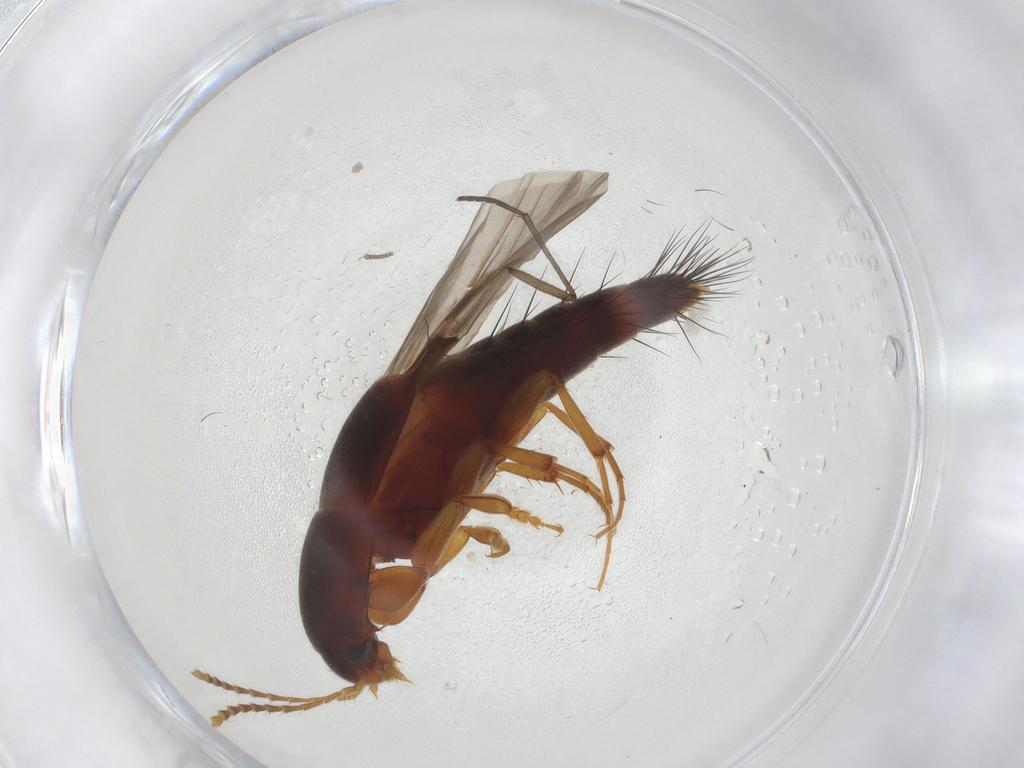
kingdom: Animalia
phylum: Arthropoda
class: Insecta
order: Coleoptera
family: Staphylinidae
